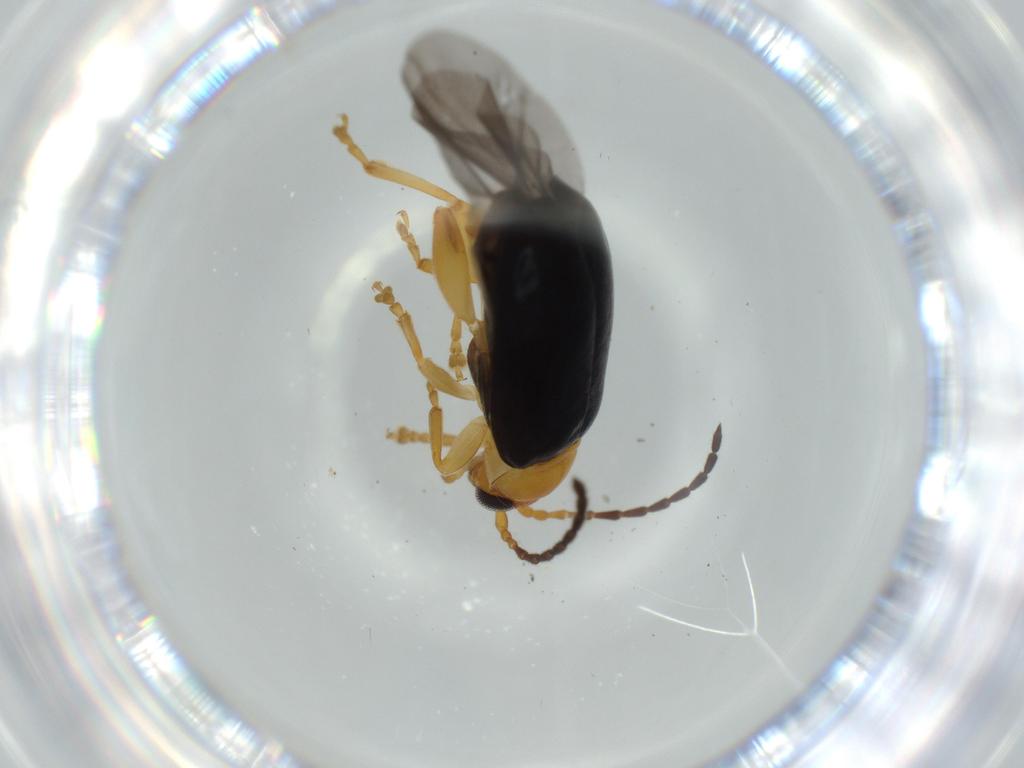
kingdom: Animalia
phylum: Arthropoda
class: Insecta
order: Coleoptera
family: Chrysomelidae
